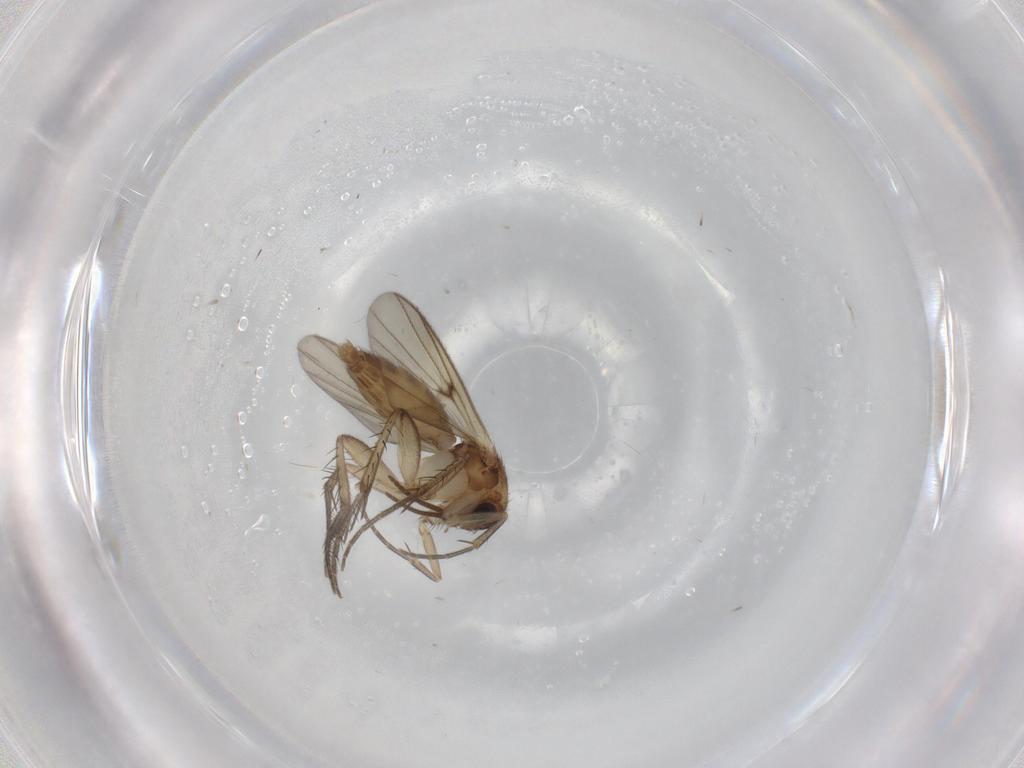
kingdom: Animalia
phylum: Arthropoda
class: Insecta
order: Diptera
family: Mycetophilidae
